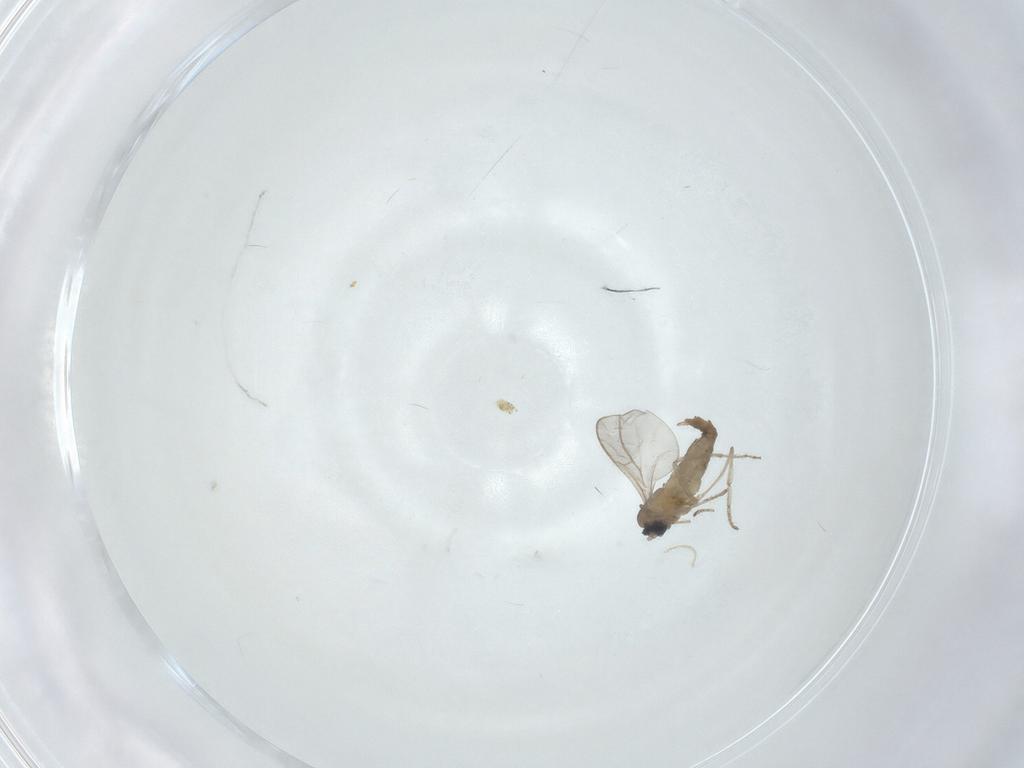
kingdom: Animalia
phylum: Arthropoda
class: Insecta
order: Diptera
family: Cecidomyiidae
